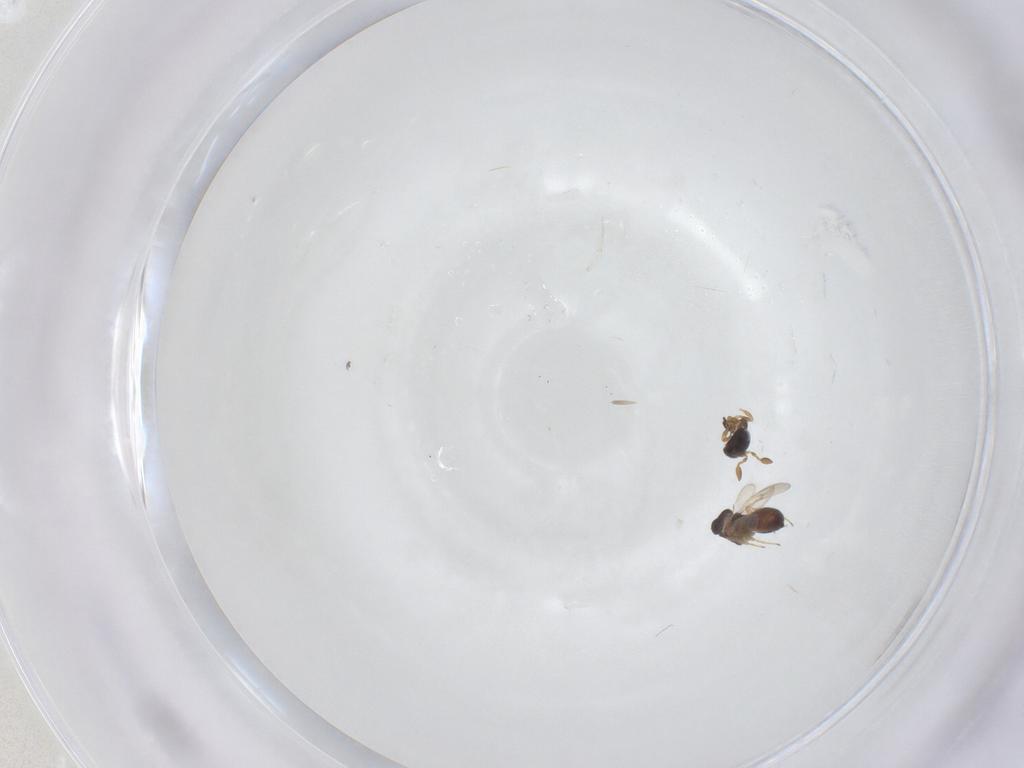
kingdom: Animalia
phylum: Arthropoda
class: Insecta
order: Hymenoptera
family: Scelionidae
